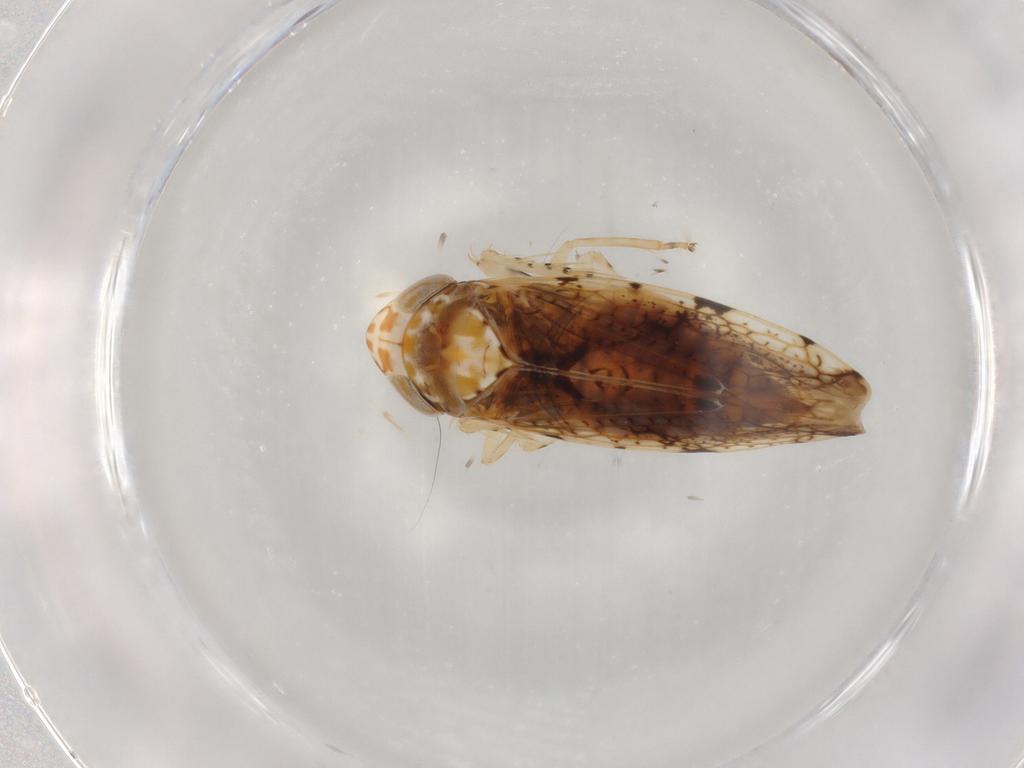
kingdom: Animalia
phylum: Arthropoda
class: Insecta
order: Hemiptera
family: Cicadellidae
